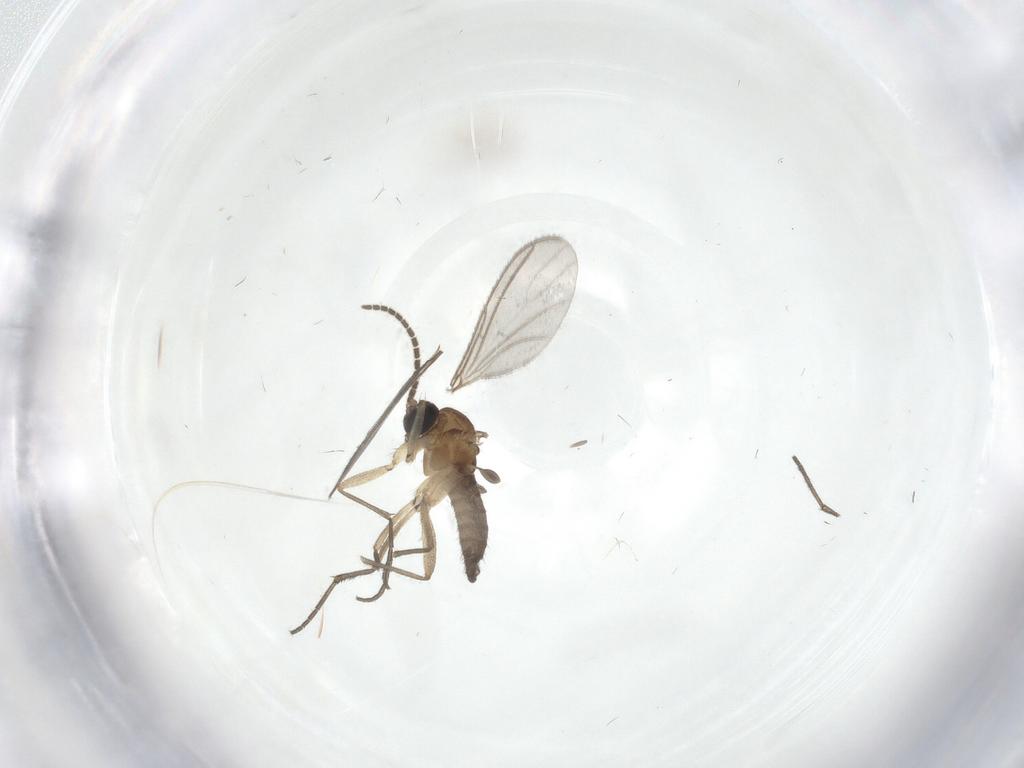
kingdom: Animalia
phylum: Arthropoda
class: Insecta
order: Diptera
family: Sciaridae
